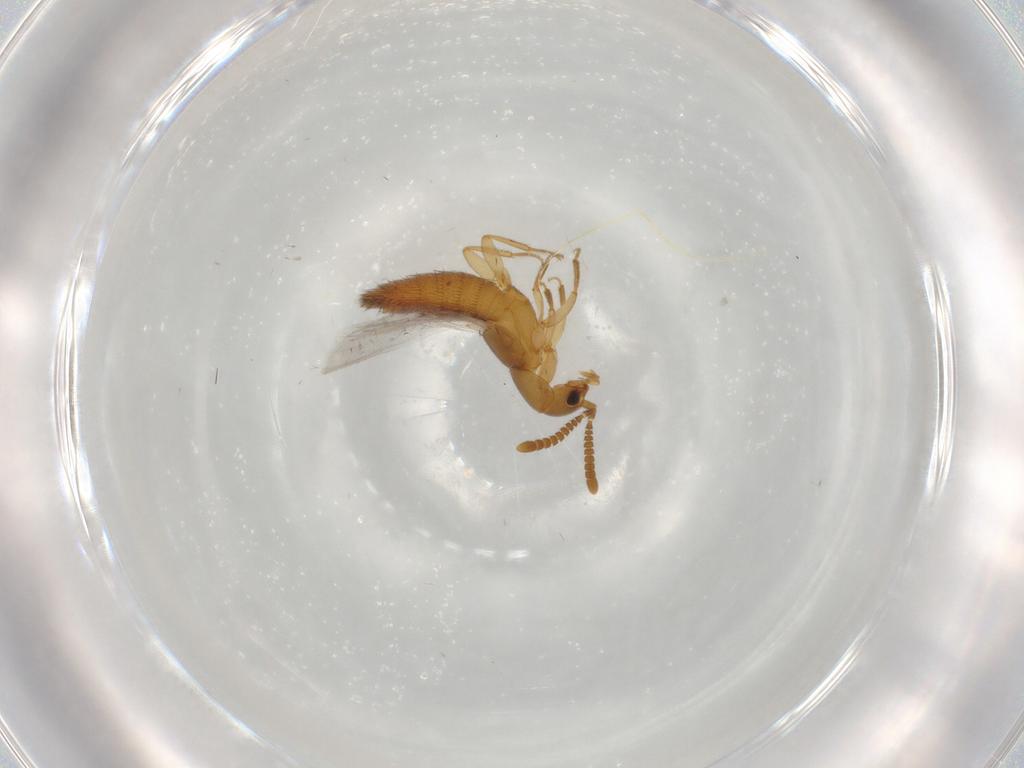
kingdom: Animalia
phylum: Arthropoda
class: Insecta
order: Coleoptera
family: Staphylinidae
